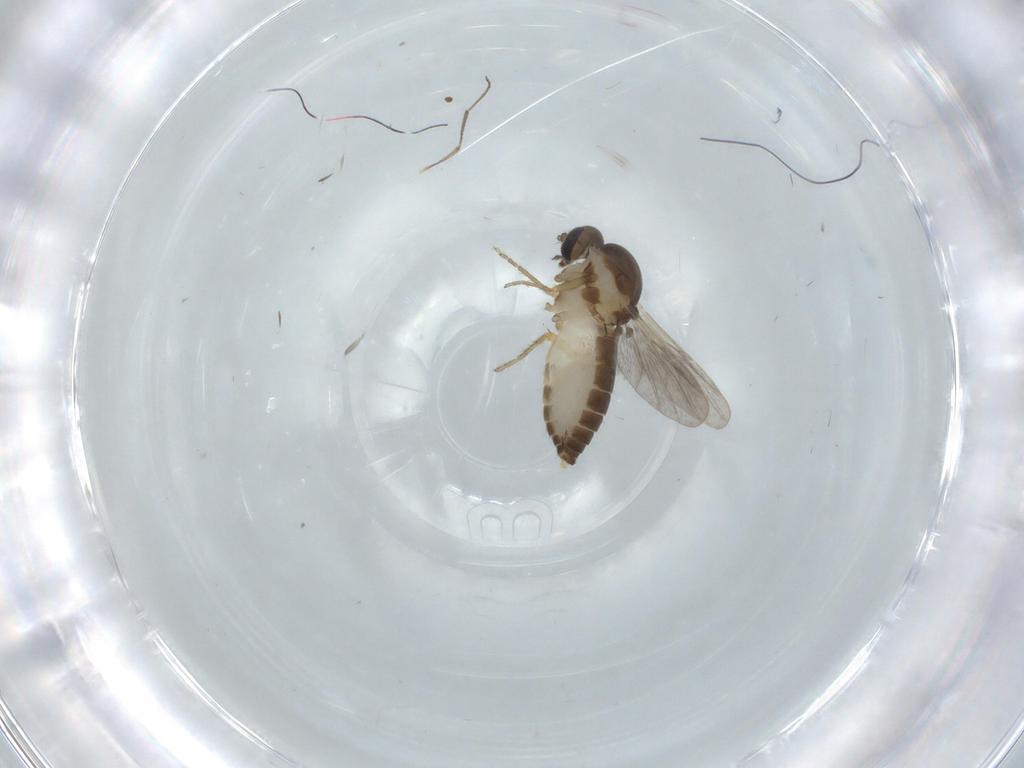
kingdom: Animalia
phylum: Arthropoda
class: Insecta
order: Diptera
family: Ceratopogonidae
